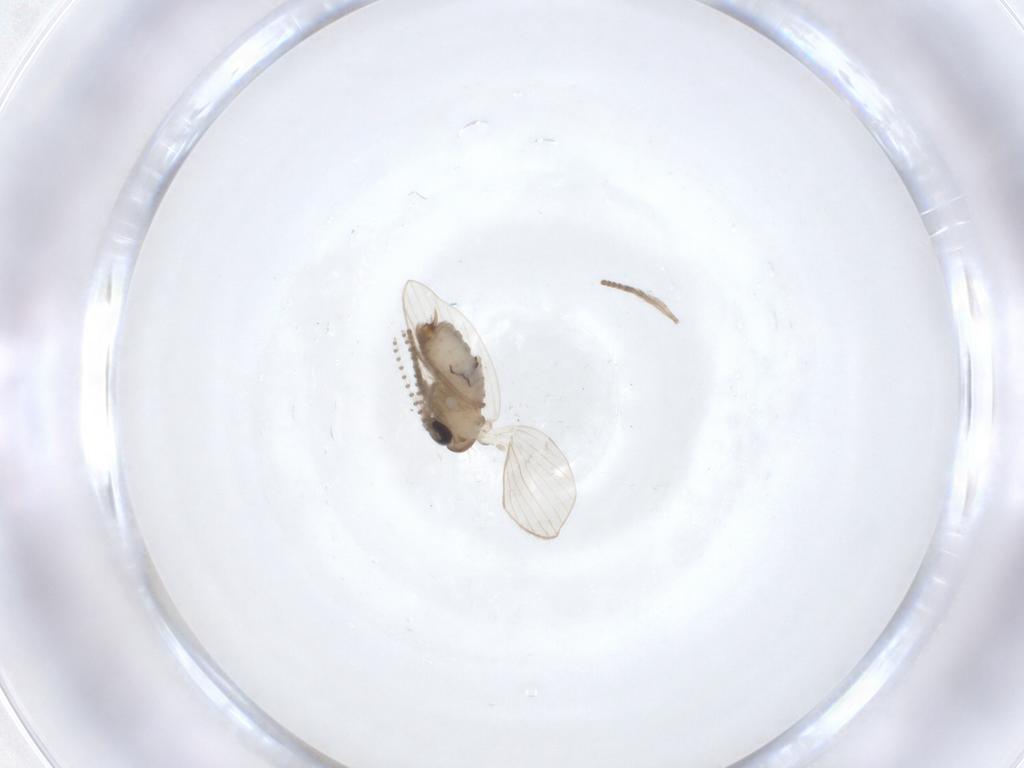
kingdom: Animalia
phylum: Arthropoda
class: Insecta
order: Diptera
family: Psychodidae
